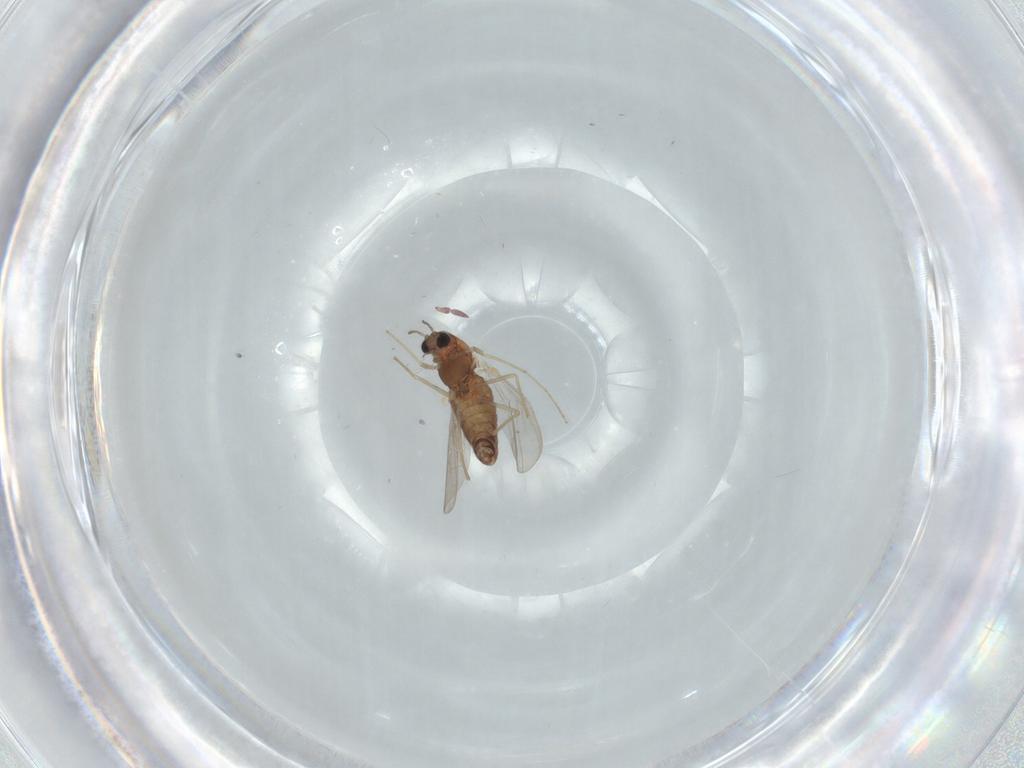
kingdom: Animalia
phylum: Arthropoda
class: Insecta
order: Diptera
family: Chironomidae
